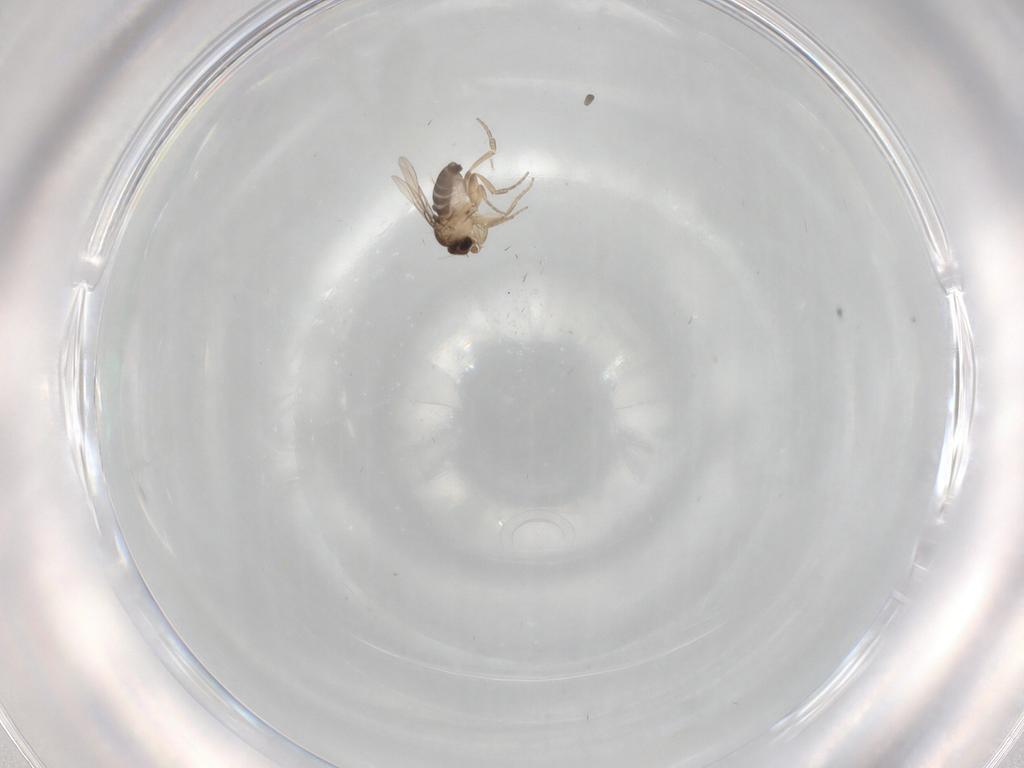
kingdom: Animalia
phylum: Arthropoda
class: Insecta
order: Diptera
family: Phoridae
